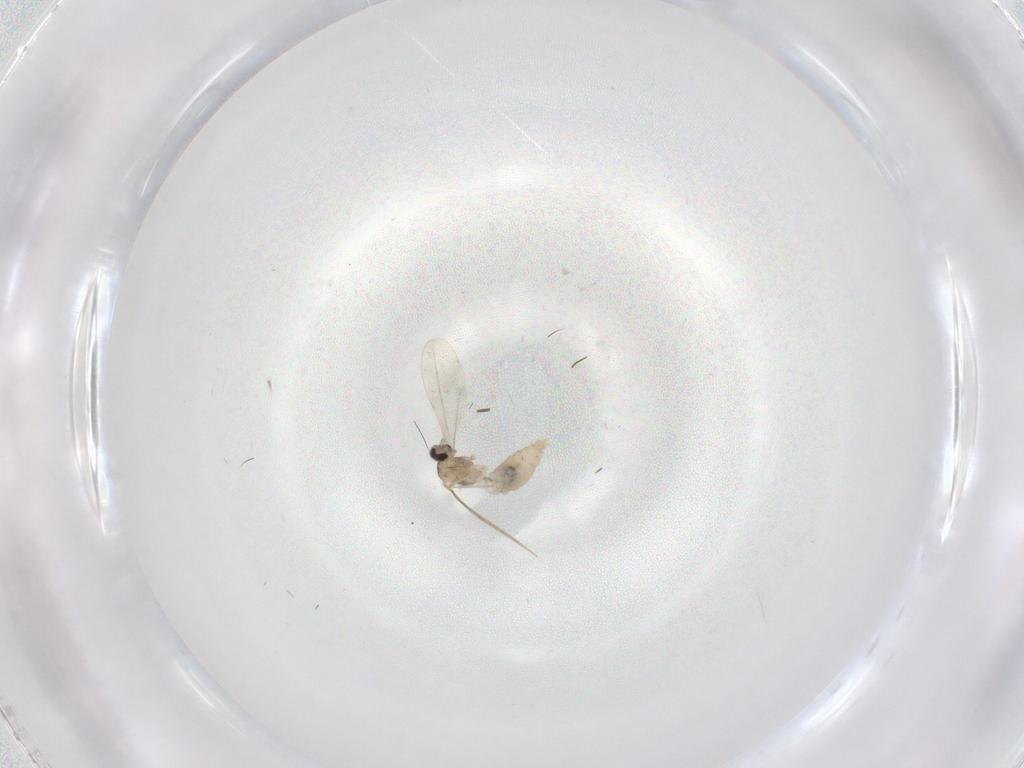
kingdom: Animalia
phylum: Arthropoda
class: Insecta
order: Diptera
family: Cecidomyiidae
